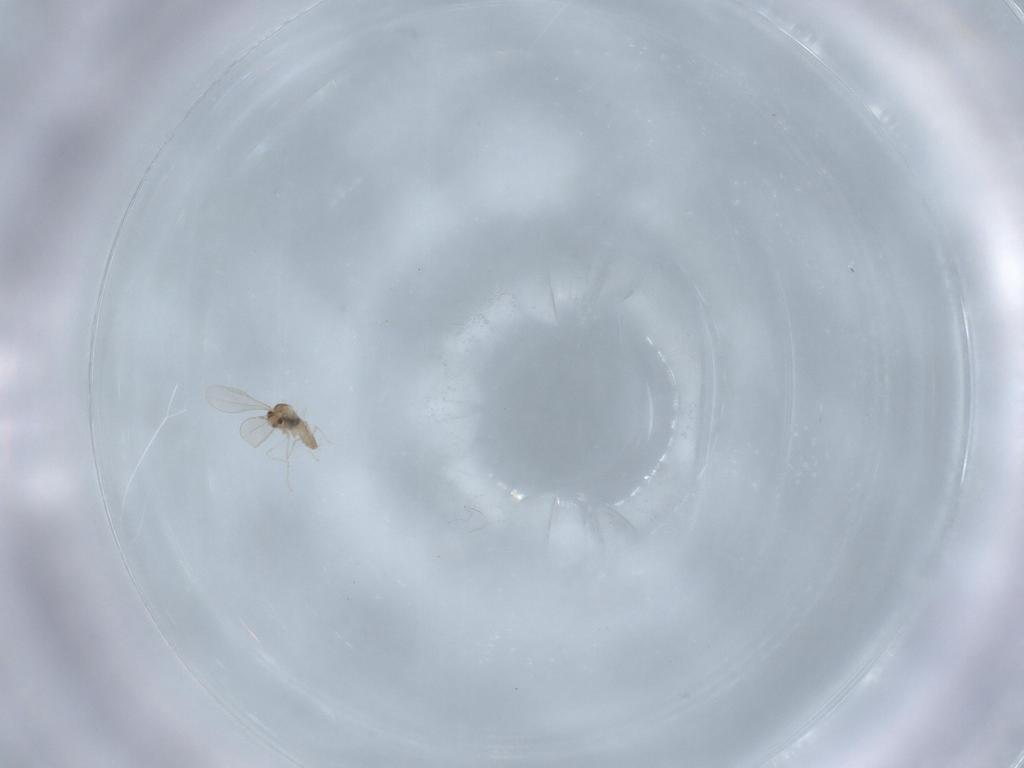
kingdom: Animalia
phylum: Arthropoda
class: Insecta
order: Diptera
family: Cecidomyiidae
